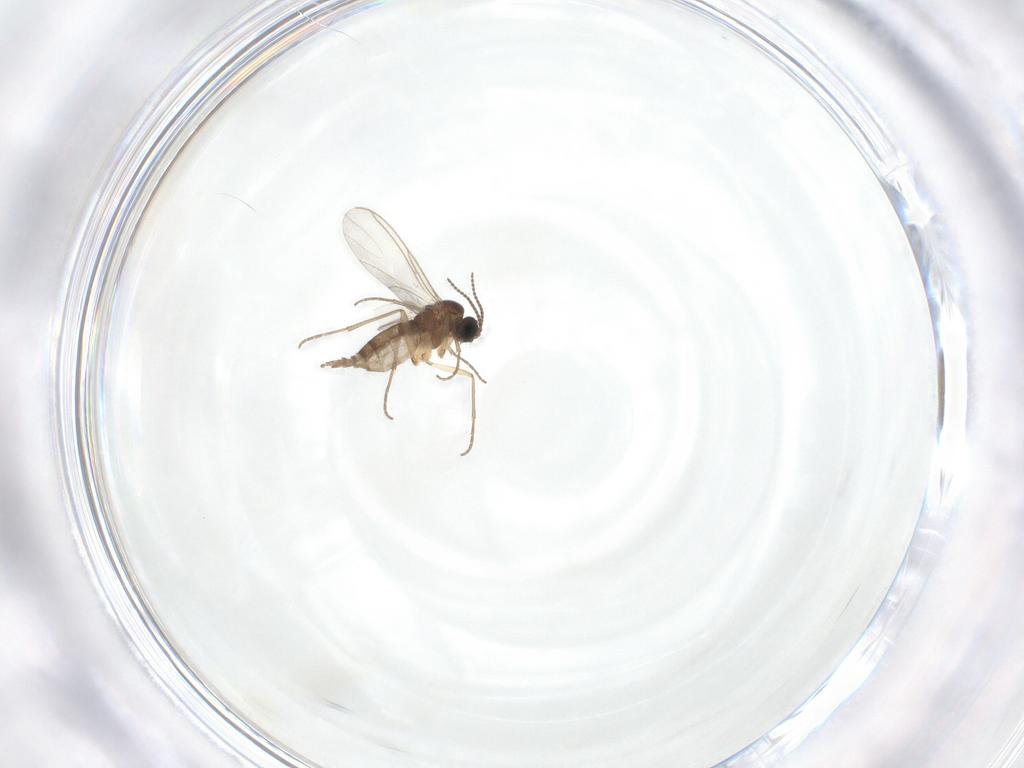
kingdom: Animalia
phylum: Arthropoda
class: Insecta
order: Diptera
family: Sciaridae
